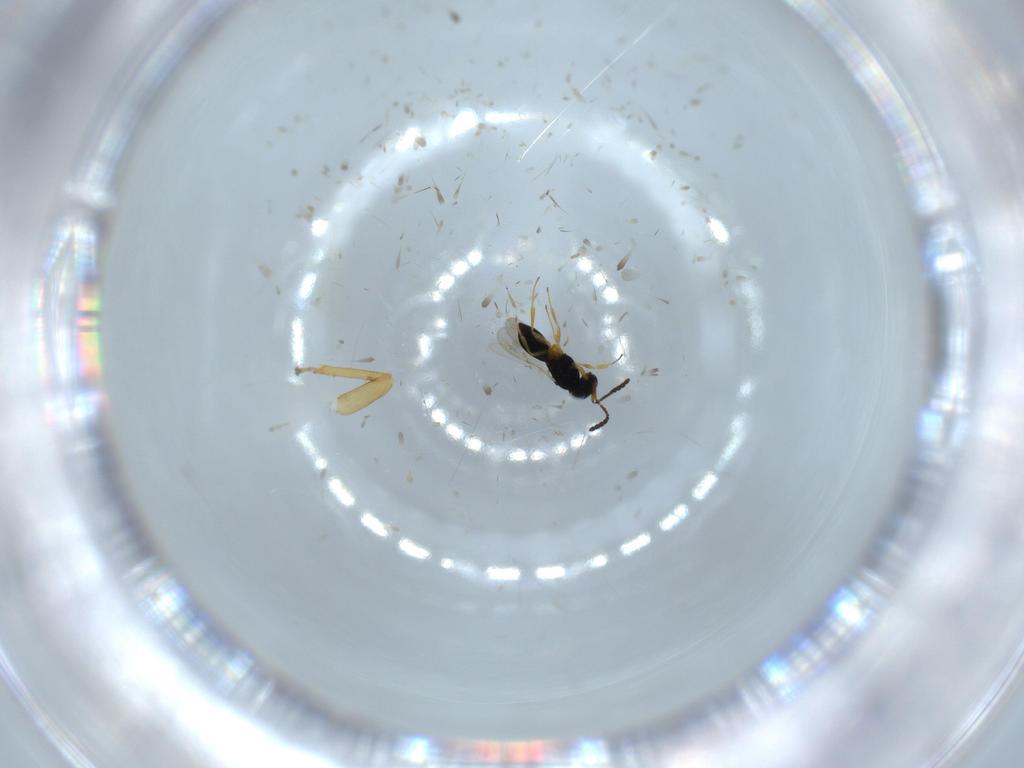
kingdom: Animalia
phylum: Arthropoda
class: Insecta
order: Hymenoptera
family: Scelionidae
